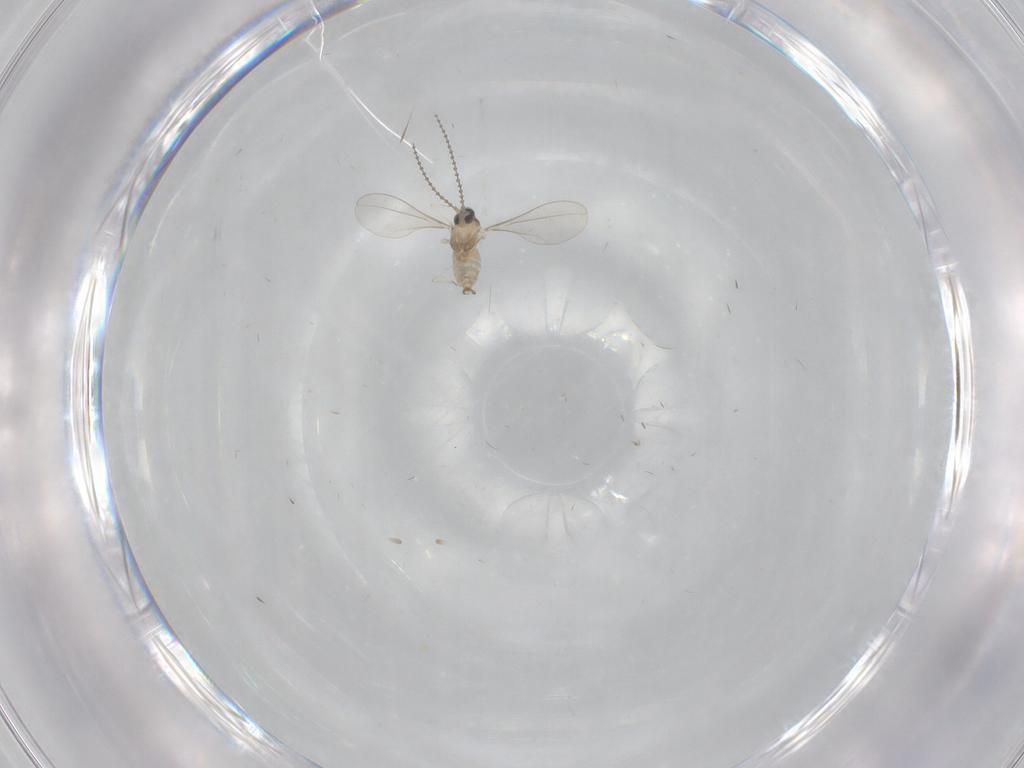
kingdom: Animalia
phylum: Arthropoda
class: Insecta
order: Diptera
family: Cecidomyiidae
